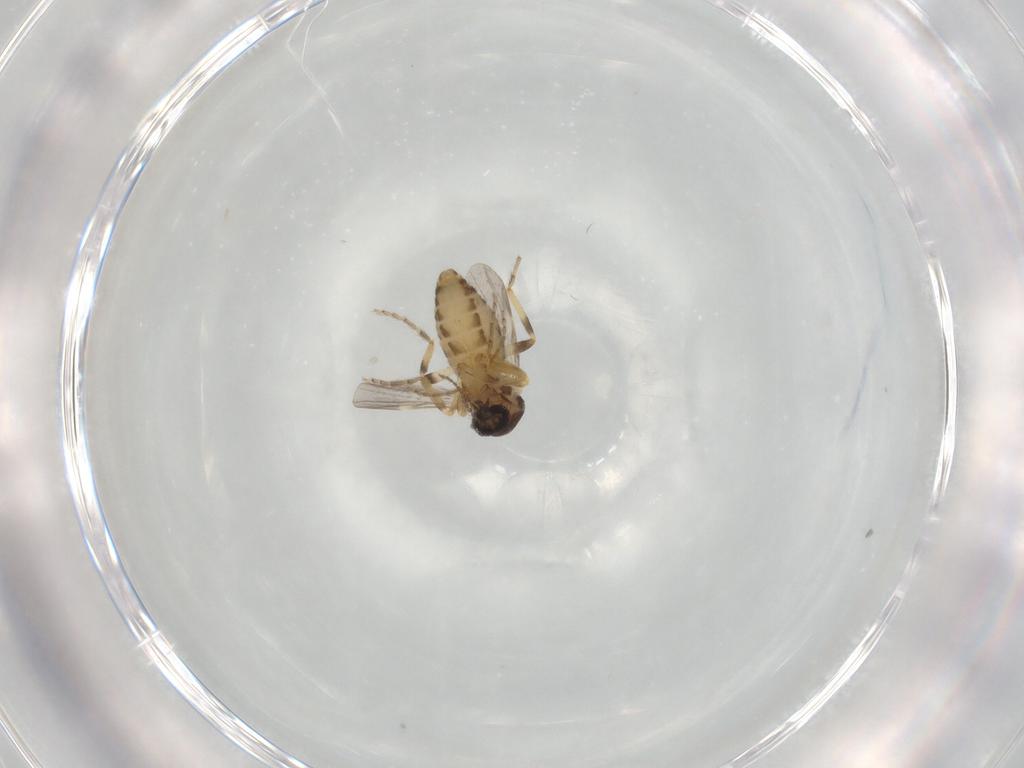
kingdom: Animalia
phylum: Arthropoda
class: Insecta
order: Diptera
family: Ceratopogonidae
